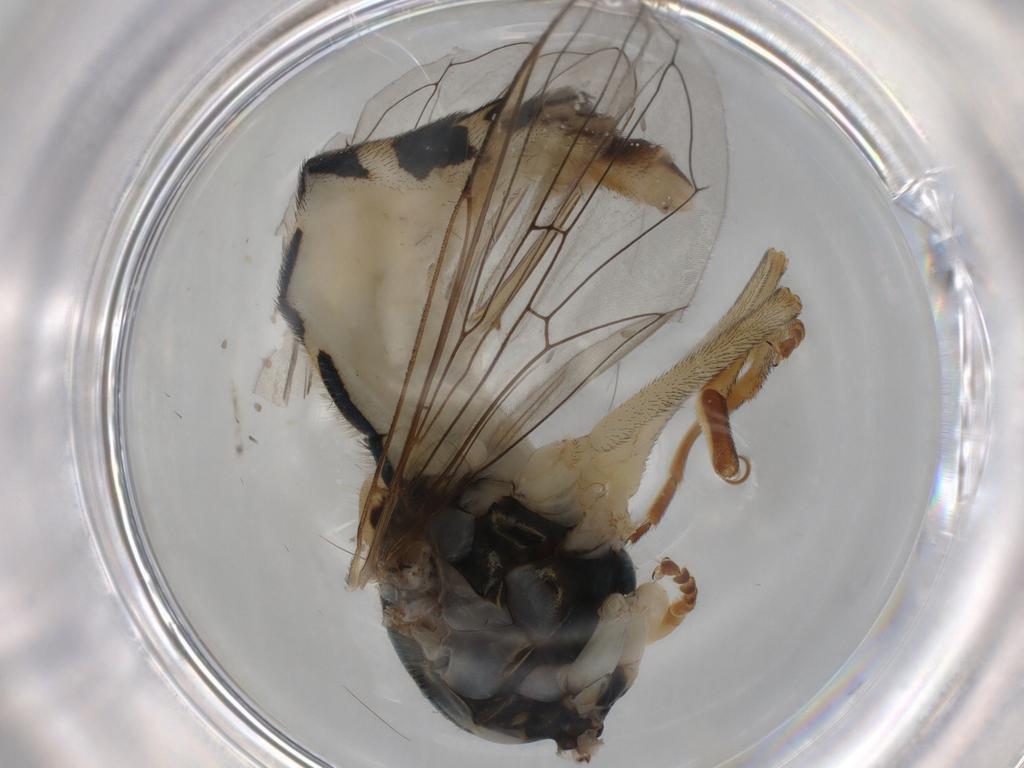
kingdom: Animalia
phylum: Arthropoda
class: Insecta
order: Diptera
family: Syrphidae
